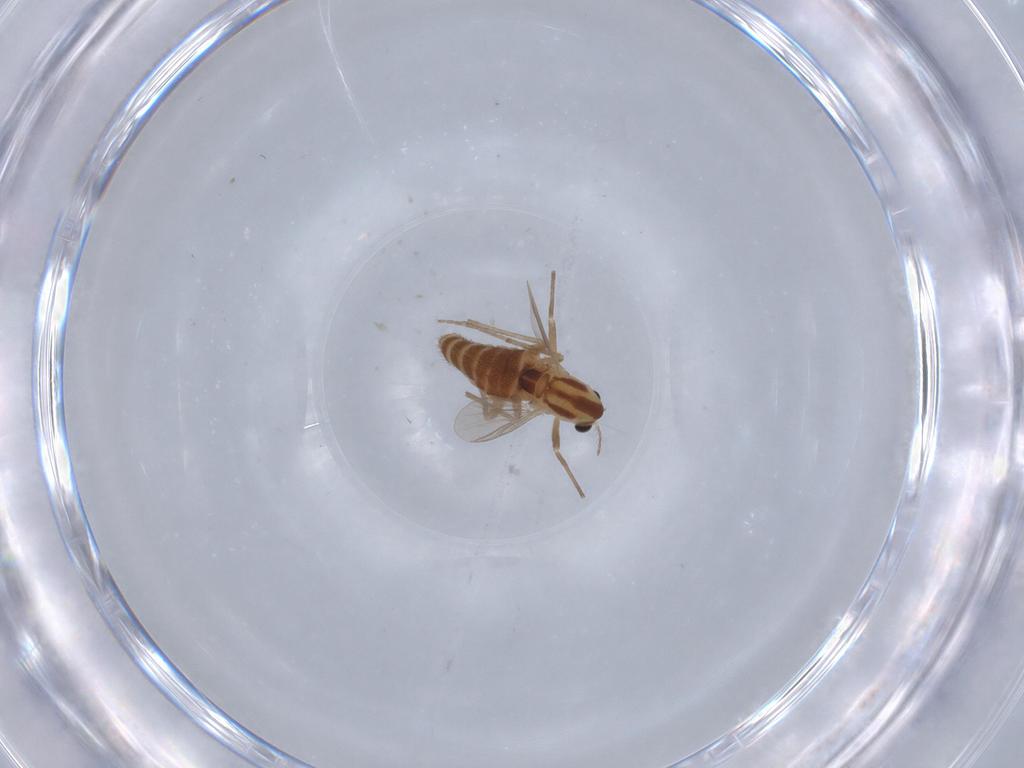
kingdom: Animalia
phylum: Arthropoda
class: Insecta
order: Diptera
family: Chironomidae
